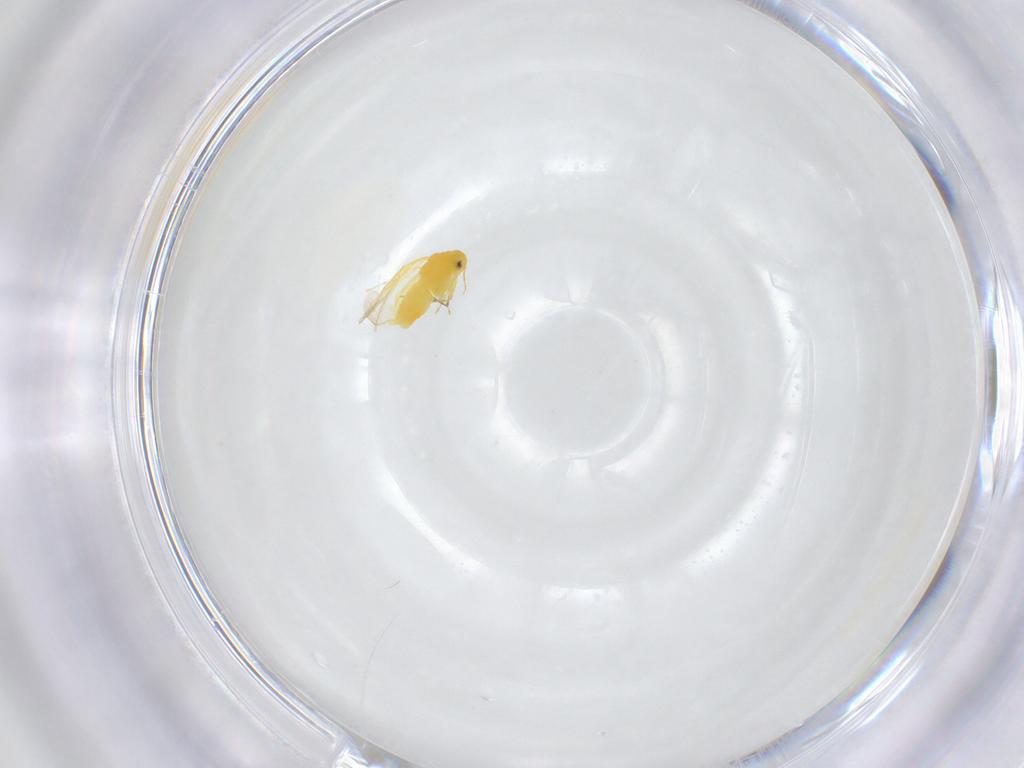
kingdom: Animalia
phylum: Arthropoda
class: Insecta
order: Hemiptera
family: Aleyrodidae
